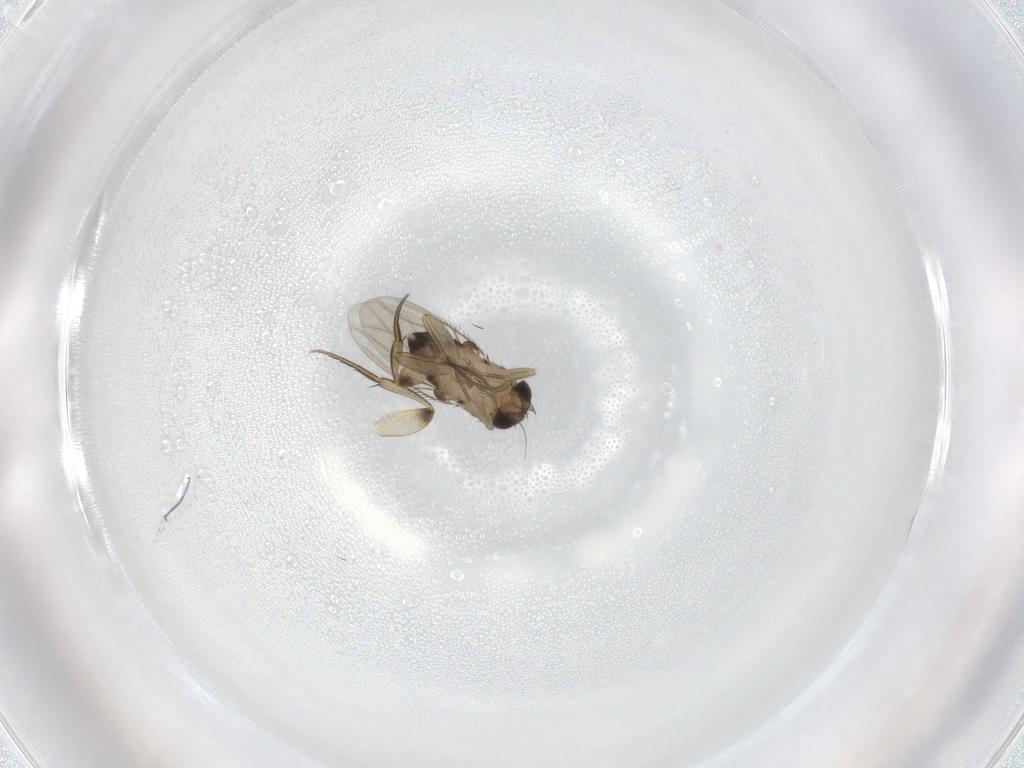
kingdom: Animalia
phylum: Arthropoda
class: Insecta
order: Diptera
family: Phoridae
